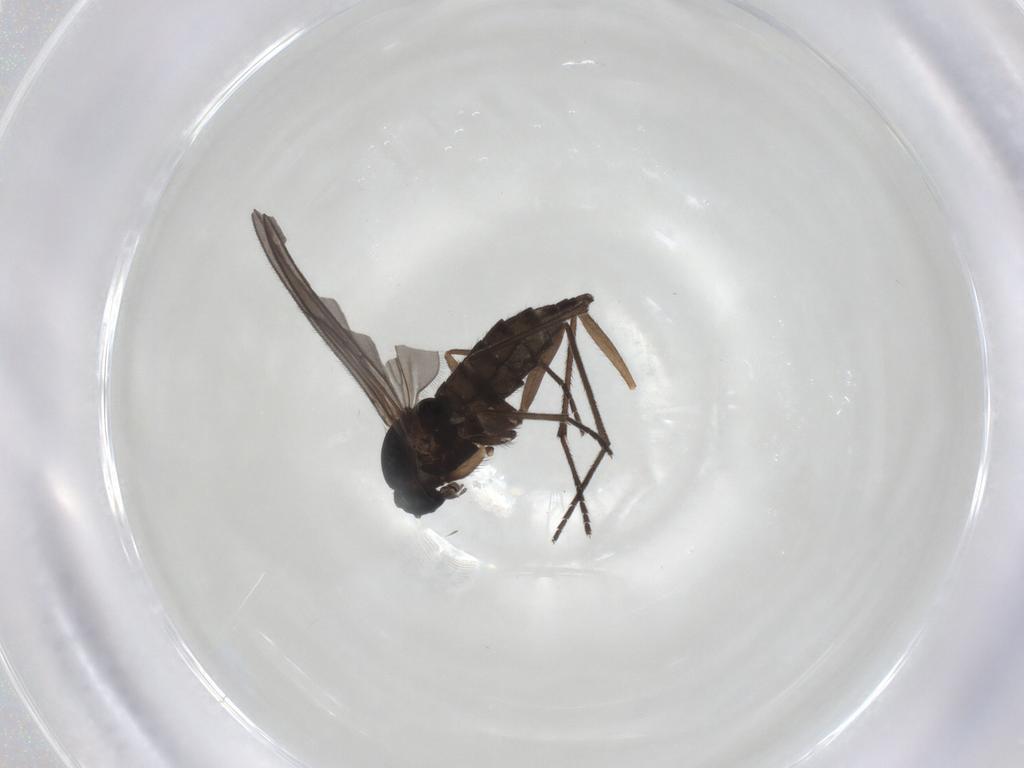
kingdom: Animalia
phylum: Arthropoda
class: Insecta
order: Diptera
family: Sciaridae
